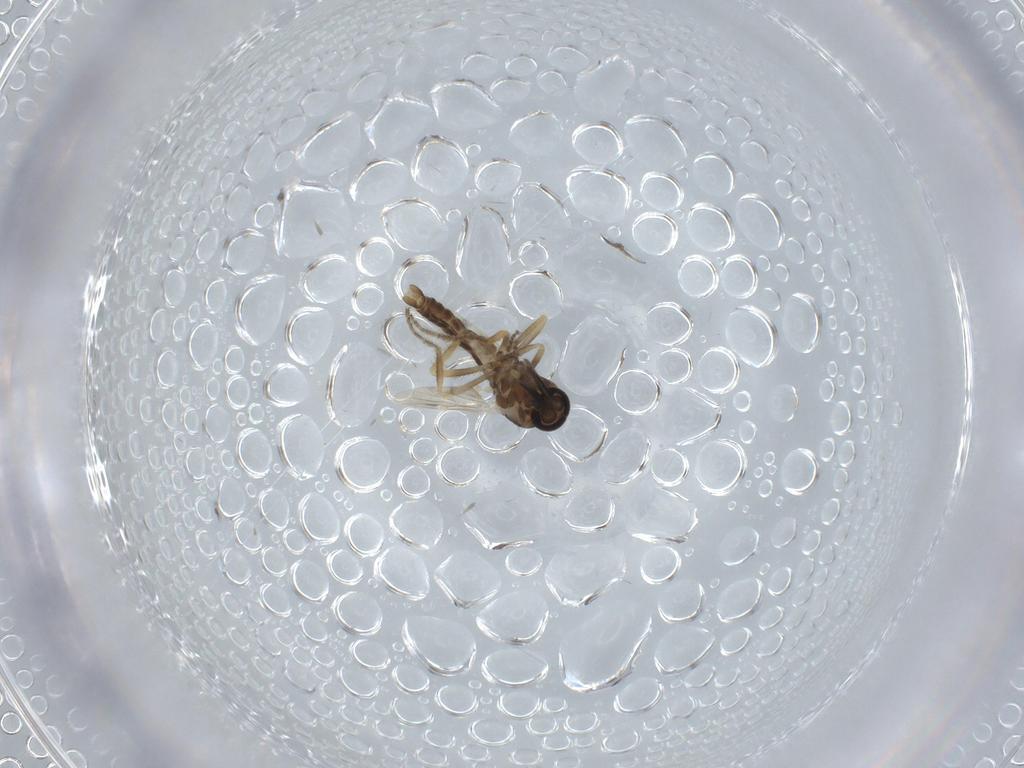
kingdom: Animalia
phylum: Arthropoda
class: Insecta
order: Diptera
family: Ceratopogonidae
